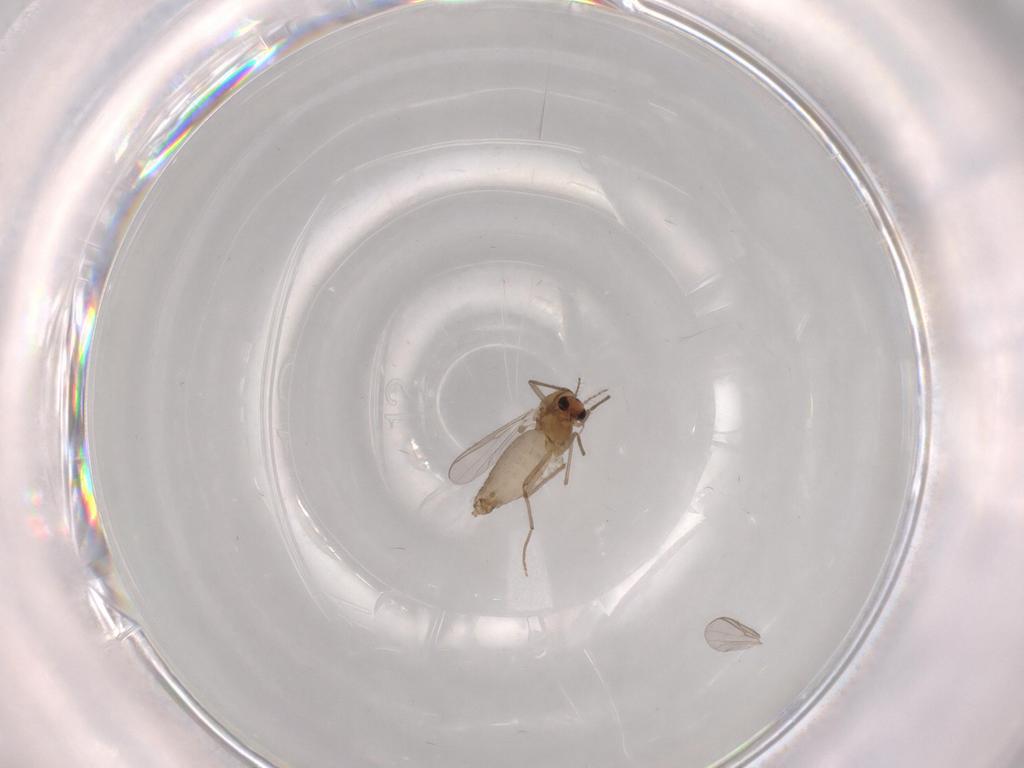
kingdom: Animalia
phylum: Arthropoda
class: Insecta
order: Diptera
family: Chironomidae
